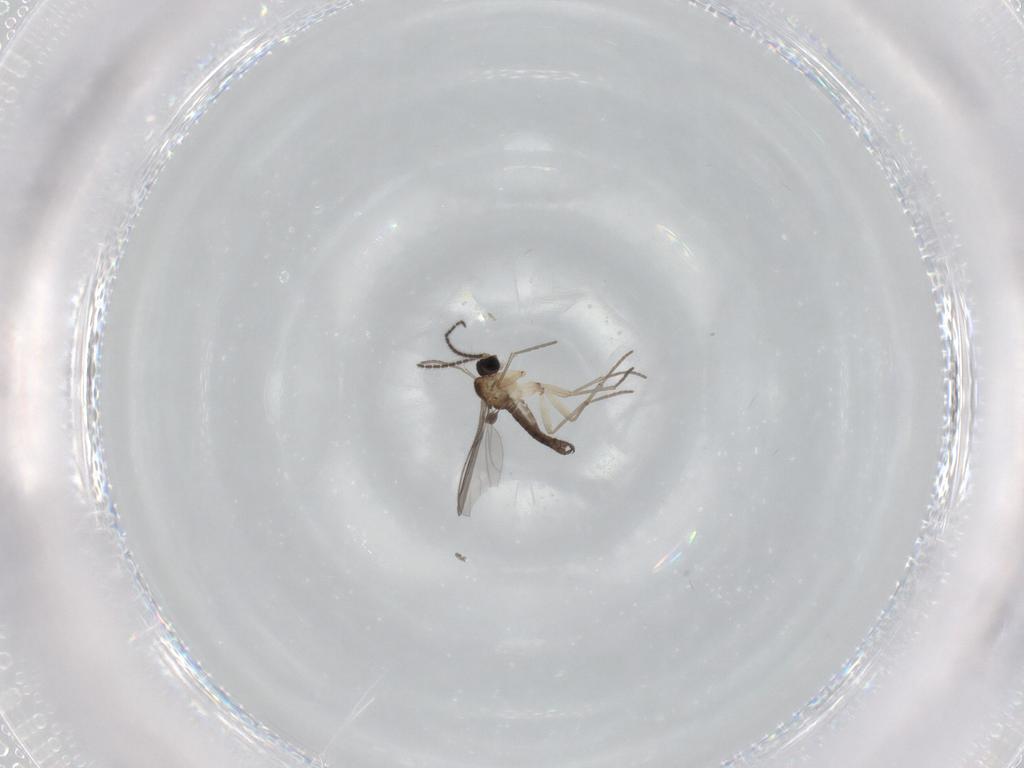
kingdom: Animalia
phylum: Arthropoda
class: Insecta
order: Diptera
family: Sciaridae
